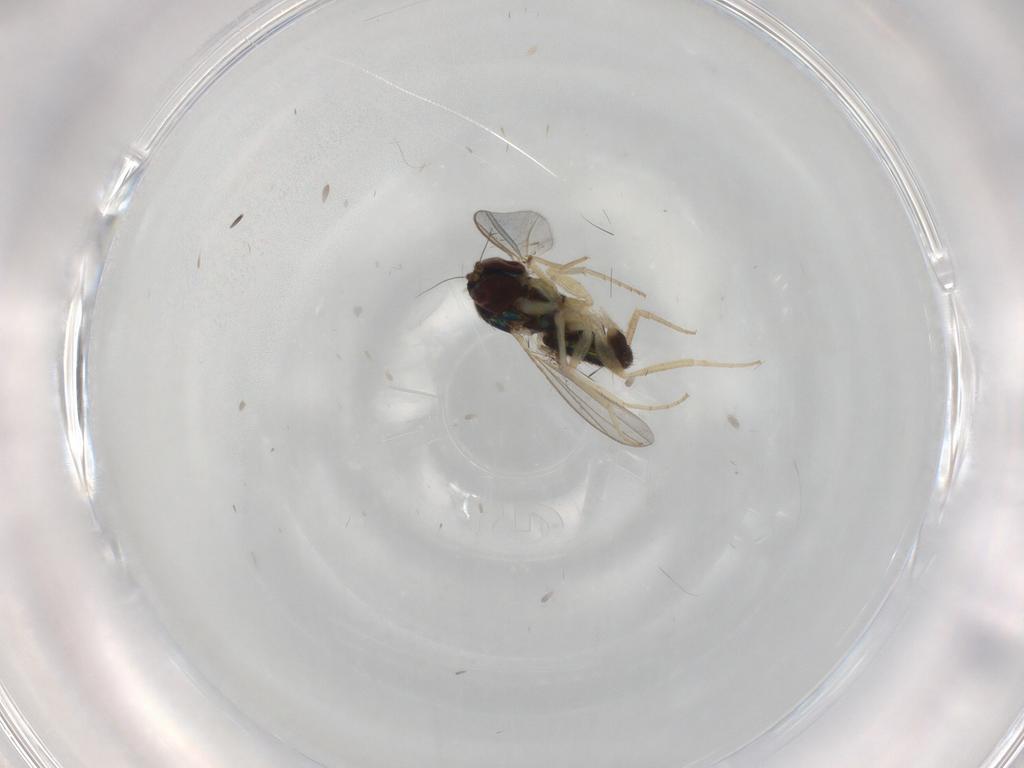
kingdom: Animalia
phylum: Arthropoda
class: Insecta
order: Diptera
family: Dolichopodidae
